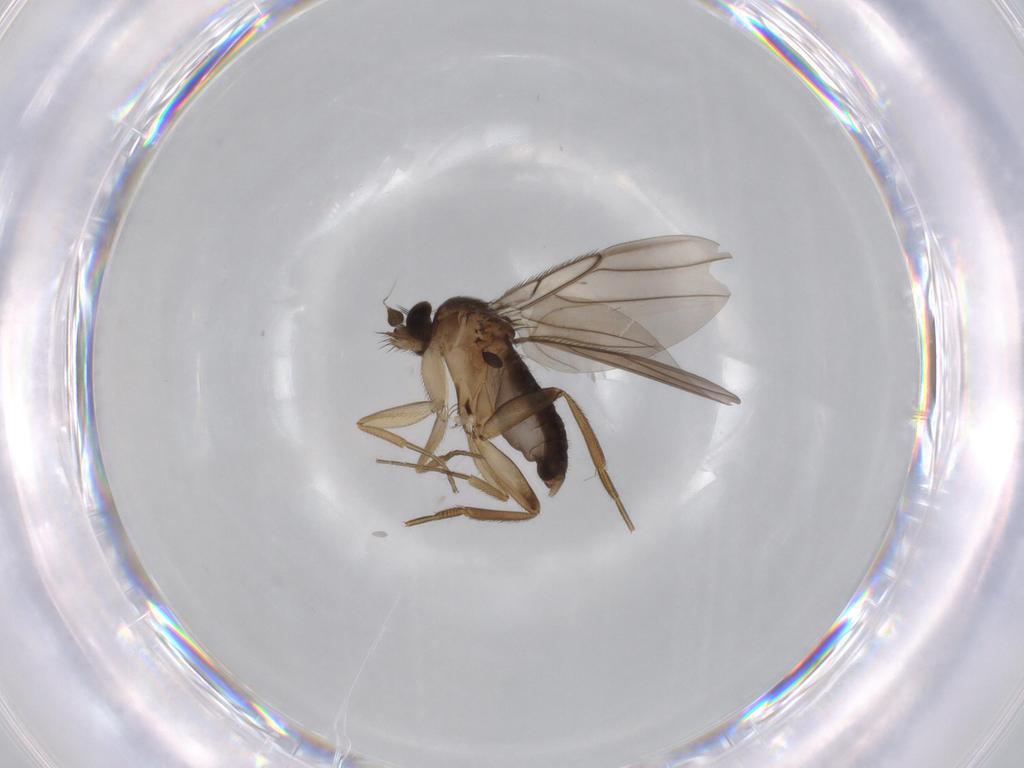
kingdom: Animalia
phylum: Arthropoda
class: Insecta
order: Diptera
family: Phoridae
